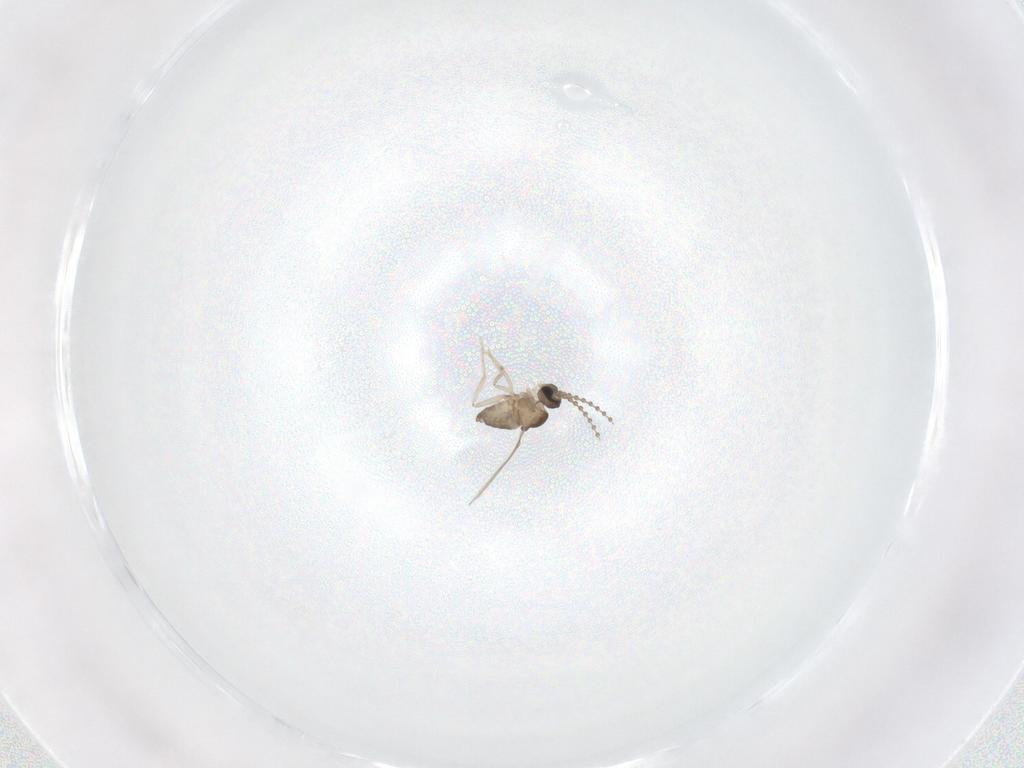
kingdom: Animalia
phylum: Arthropoda
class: Insecta
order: Diptera
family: Cecidomyiidae
